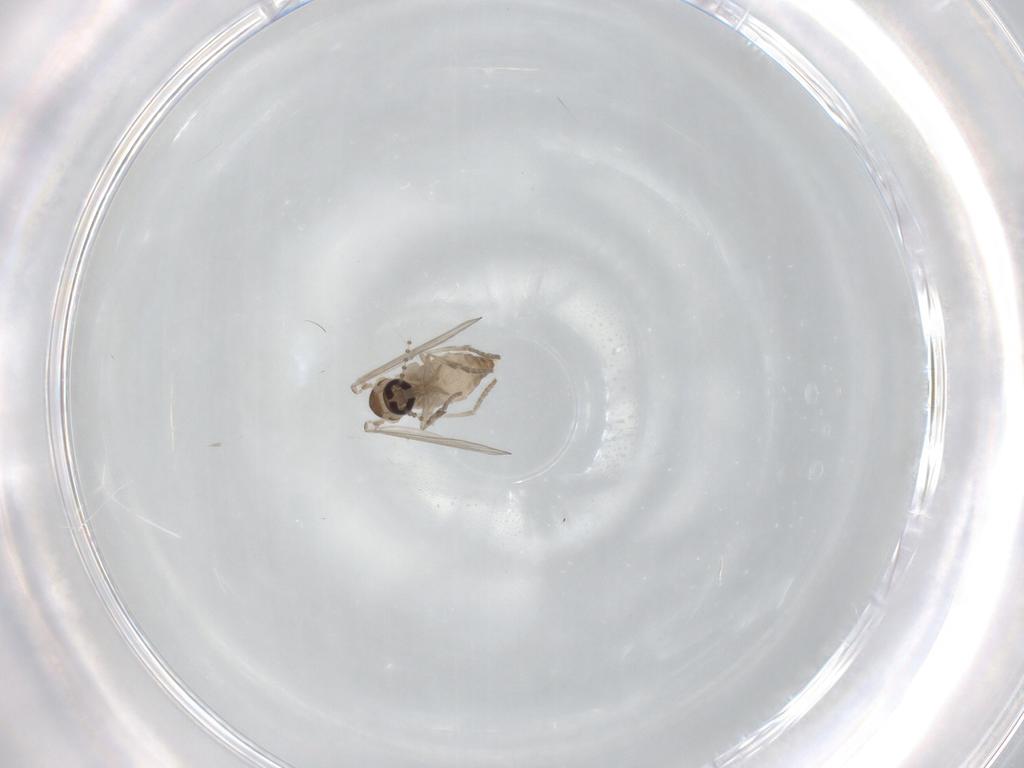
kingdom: Animalia
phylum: Arthropoda
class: Insecta
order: Diptera
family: Psychodidae
